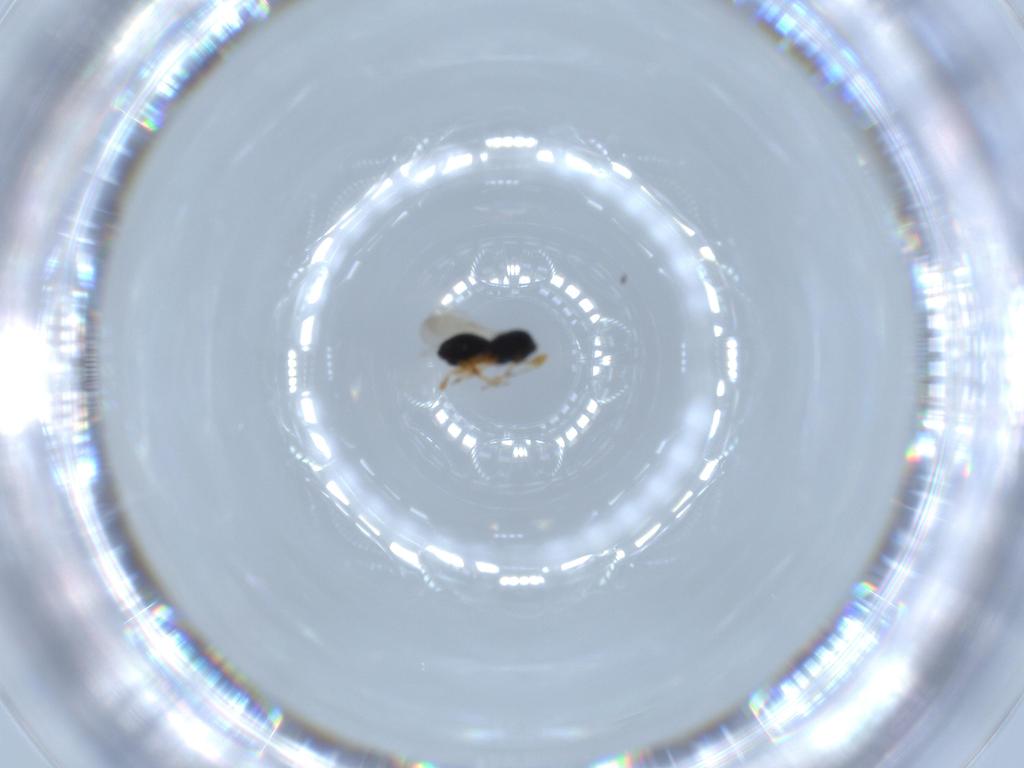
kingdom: Animalia
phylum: Arthropoda
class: Insecta
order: Hymenoptera
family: Scelionidae
